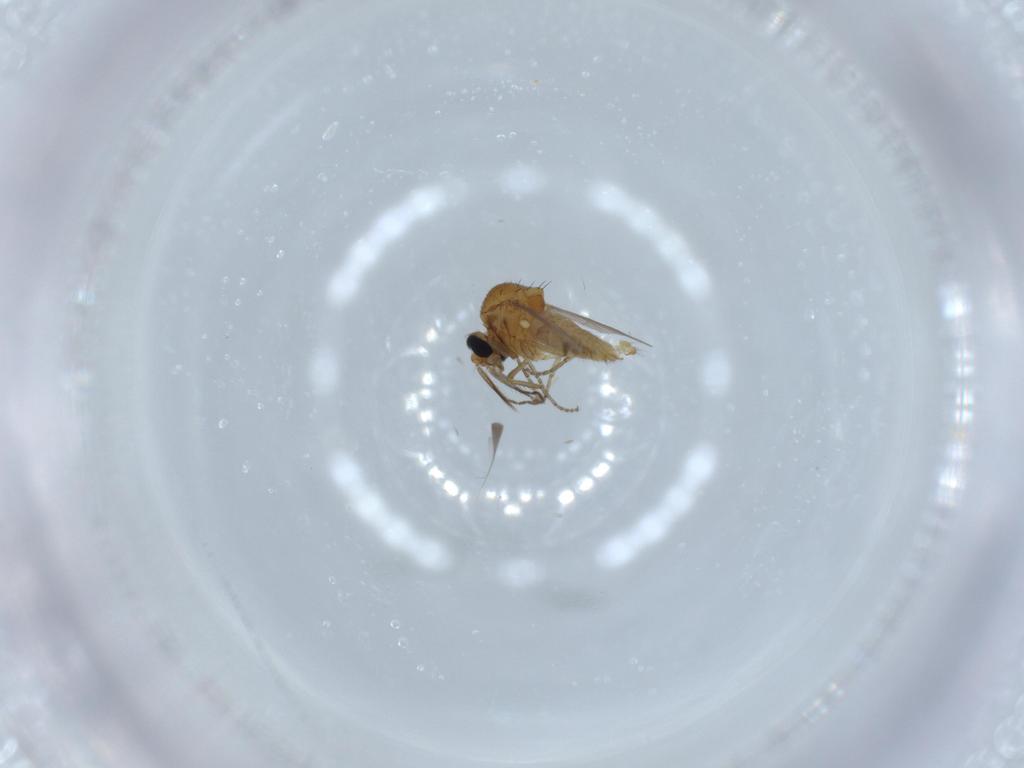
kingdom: Animalia
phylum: Arthropoda
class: Insecta
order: Diptera
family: Ceratopogonidae
